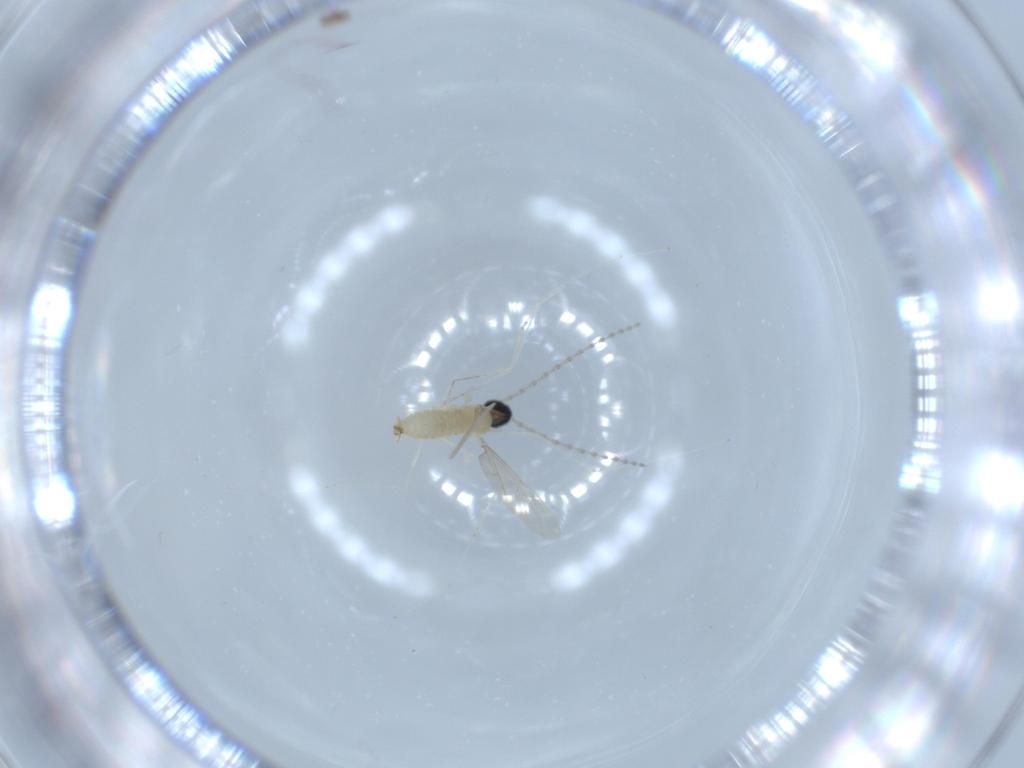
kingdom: Animalia
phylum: Arthropoda
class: Insecta
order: Diptera
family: Cecidomyiidae
